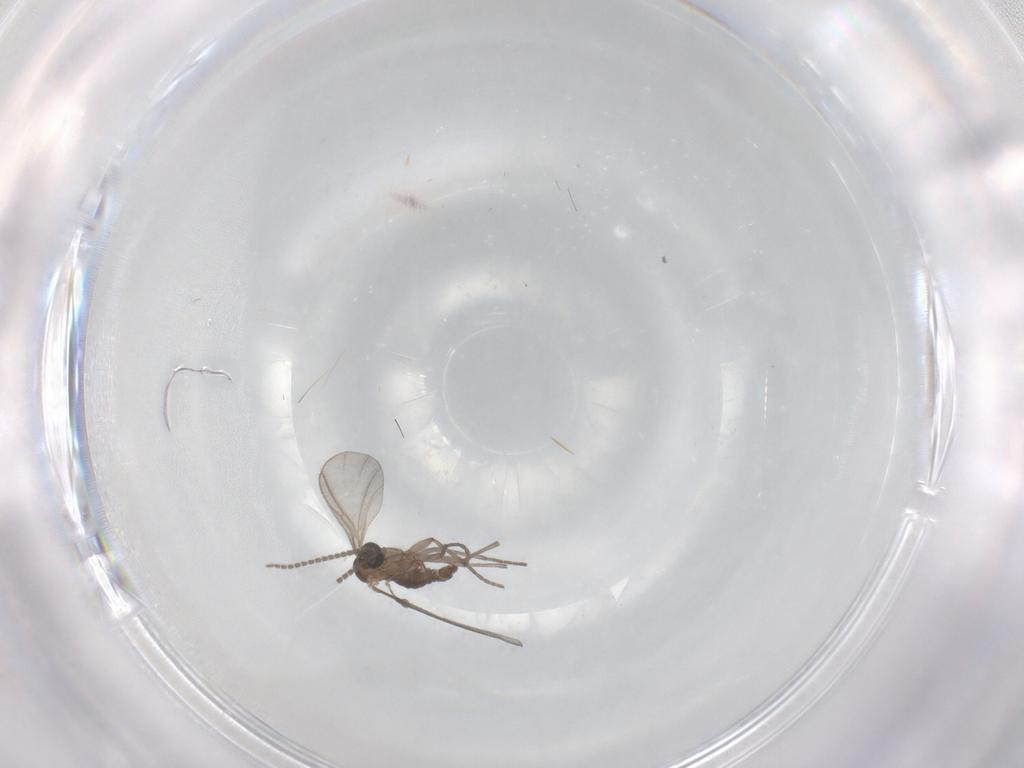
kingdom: Animalia
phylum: Arthropoda
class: Insecta
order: Diptera
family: Sciaridae
